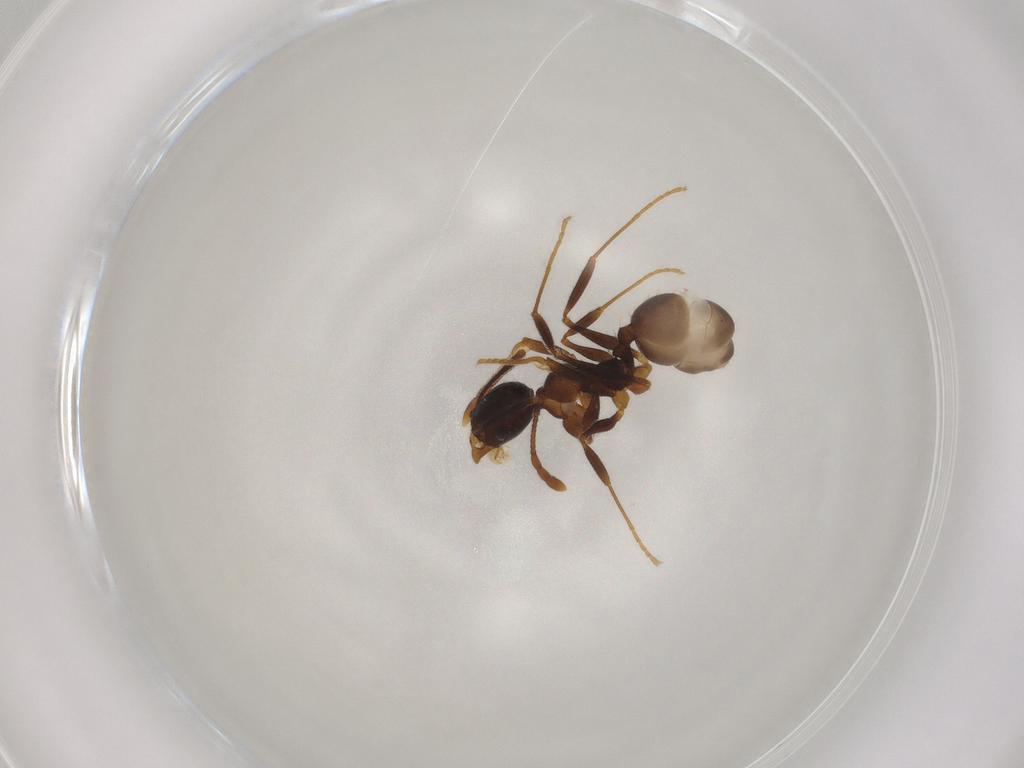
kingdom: Animalia
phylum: Arthropoda
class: Insecta
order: Hymenoptera
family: Formicidae
